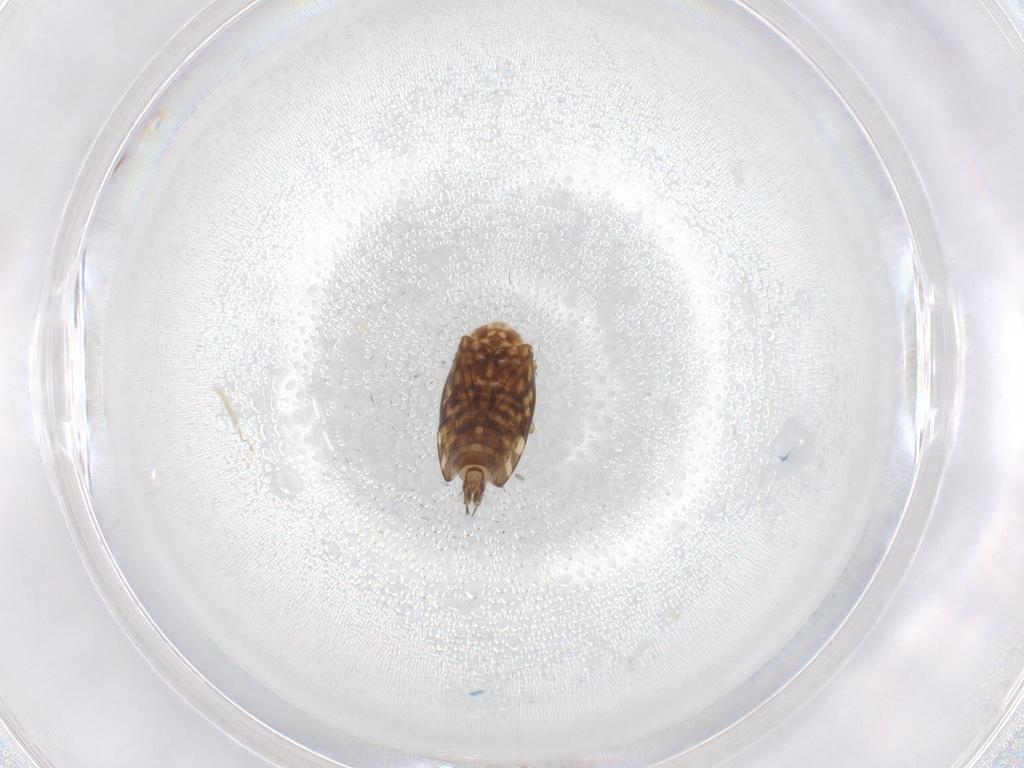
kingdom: Animalia
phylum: Arthropoda
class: Insecta
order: Hemiptera
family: Cicadellidae
